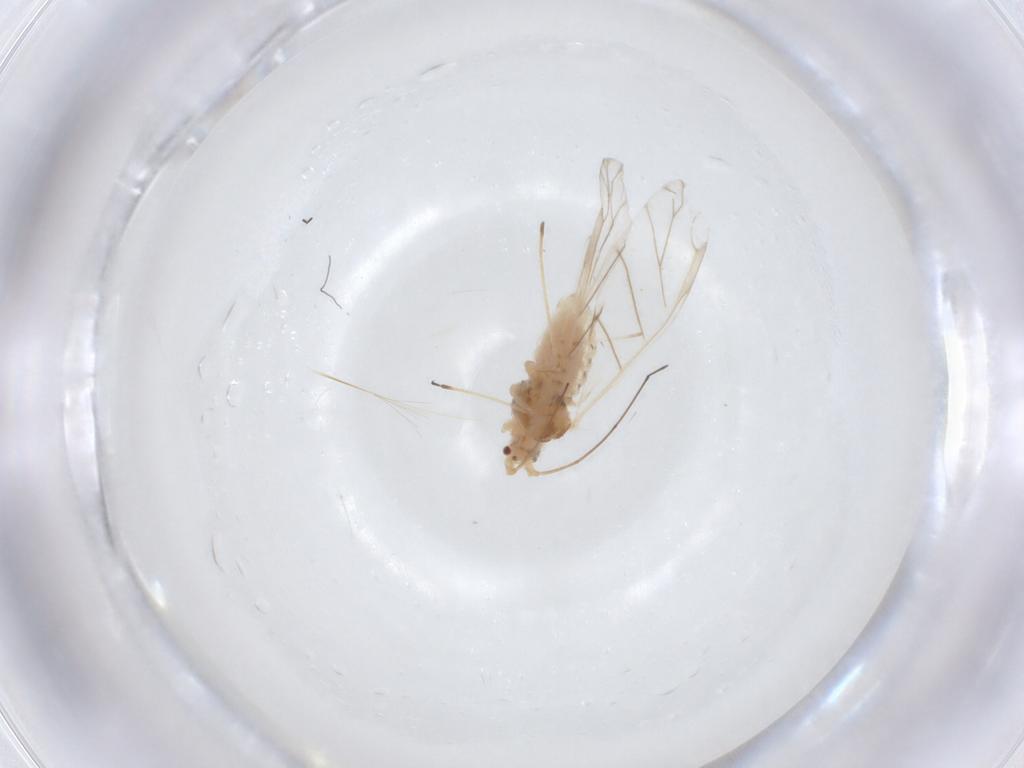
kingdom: Animalia
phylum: Arthropoda
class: Insecta
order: Hemiptera
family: Aphididae
